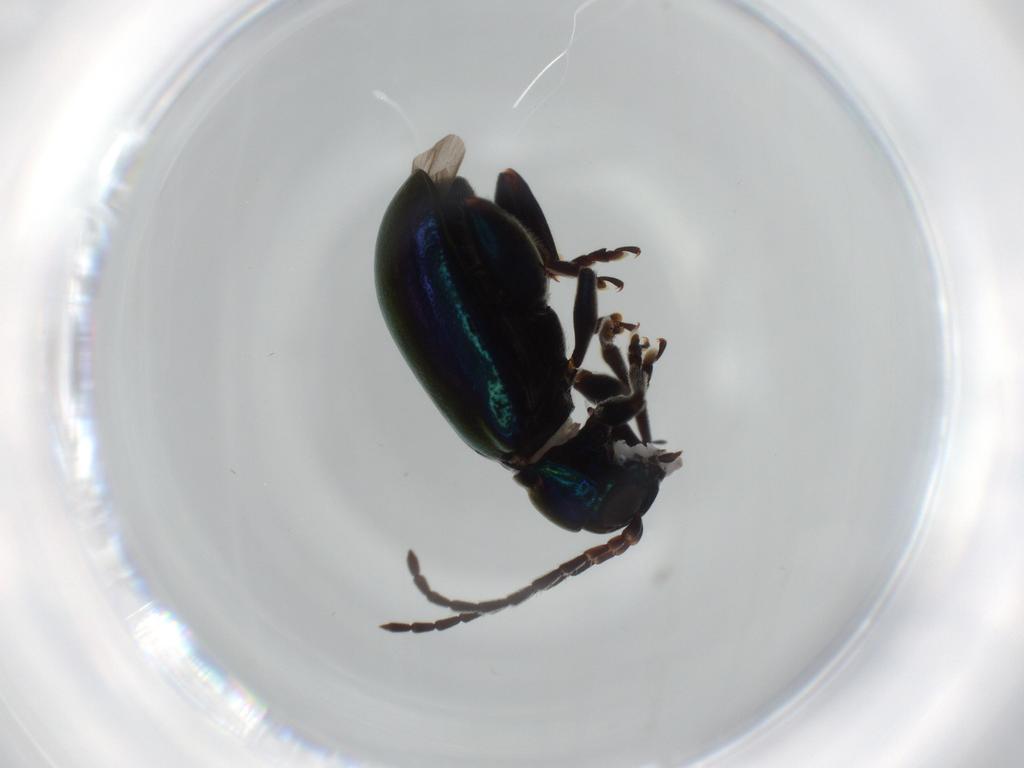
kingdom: Animalia
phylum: Arthropoda
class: Insecta
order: Coleoptera
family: Chrysomelidae
